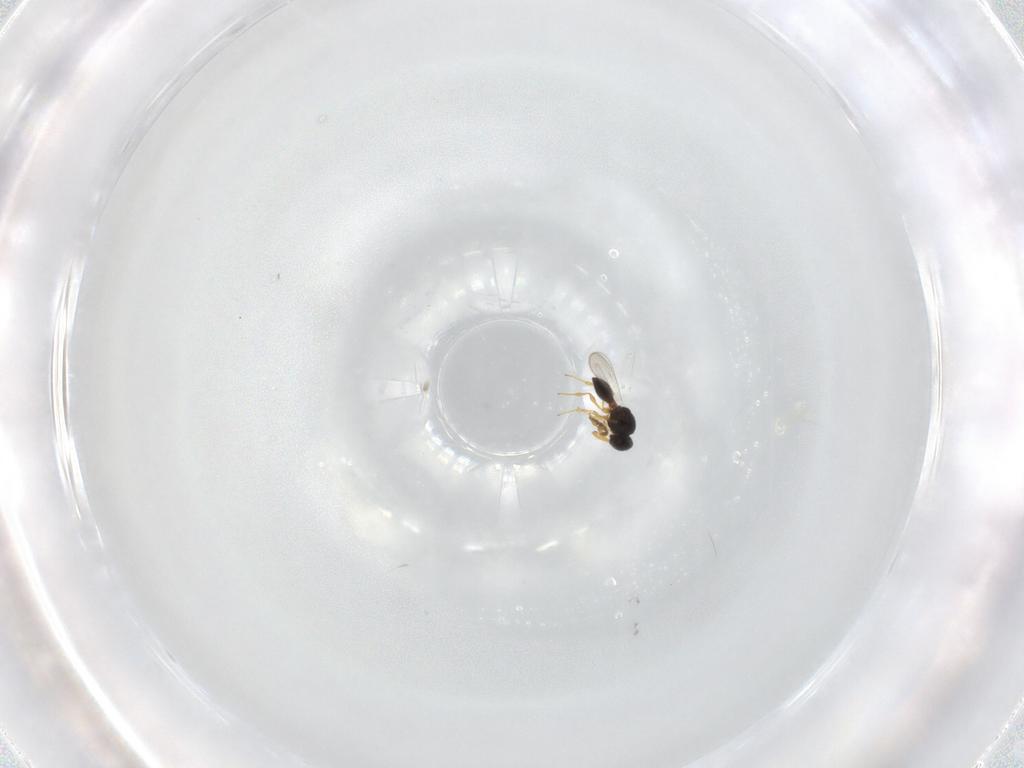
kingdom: Animalia
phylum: Arthropoda
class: Insecta
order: Hymenoptera
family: Platygastridae
